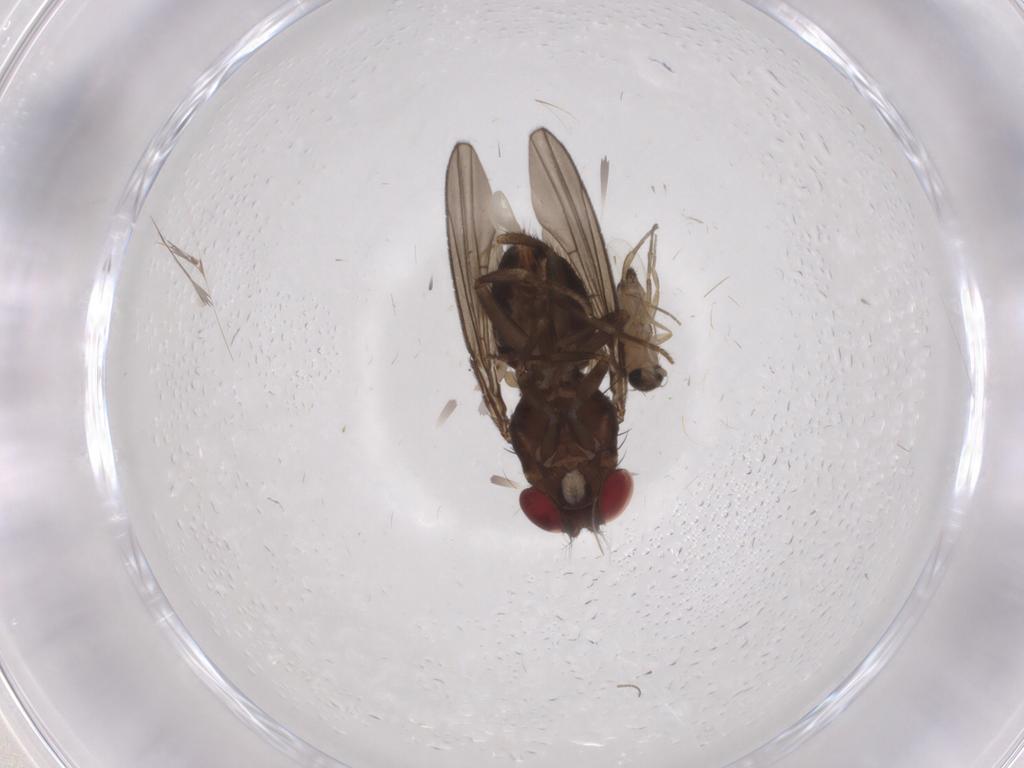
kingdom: Animalia
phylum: Arthropoda
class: Insecta
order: Diptera
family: Drosophilidae
